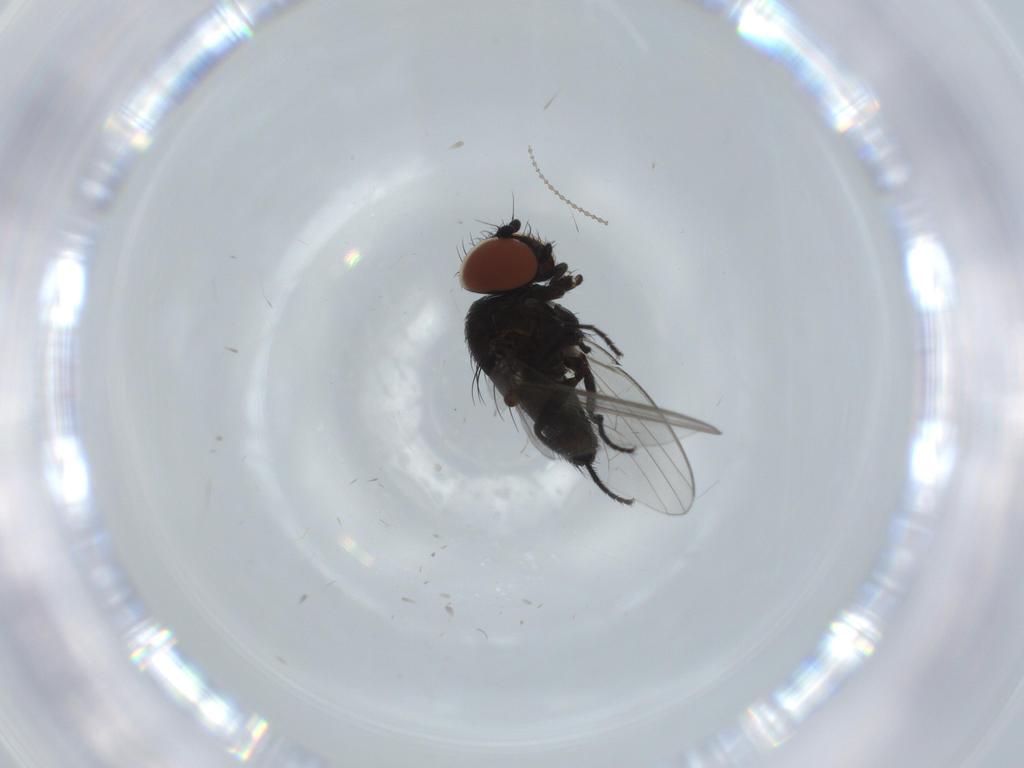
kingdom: Animalia
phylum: Arthropoda
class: Insecta
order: Diptera
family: Milichiidae
